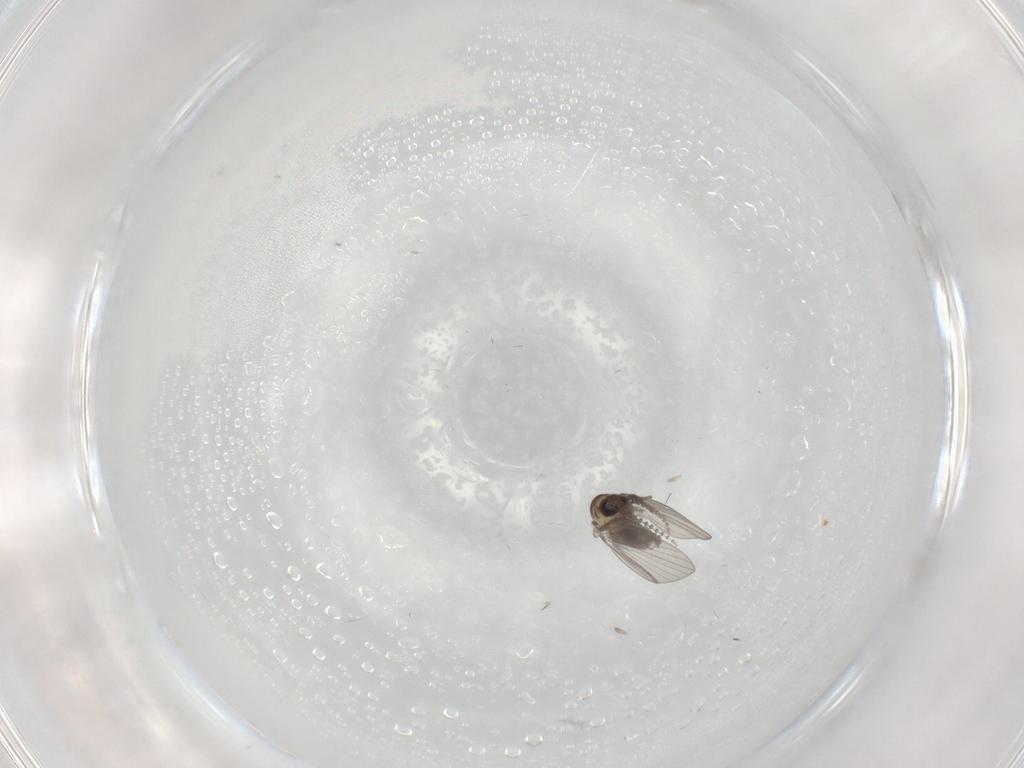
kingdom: Animalia
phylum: Arthropoda
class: Insecta
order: Diptera
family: Psychodidae
